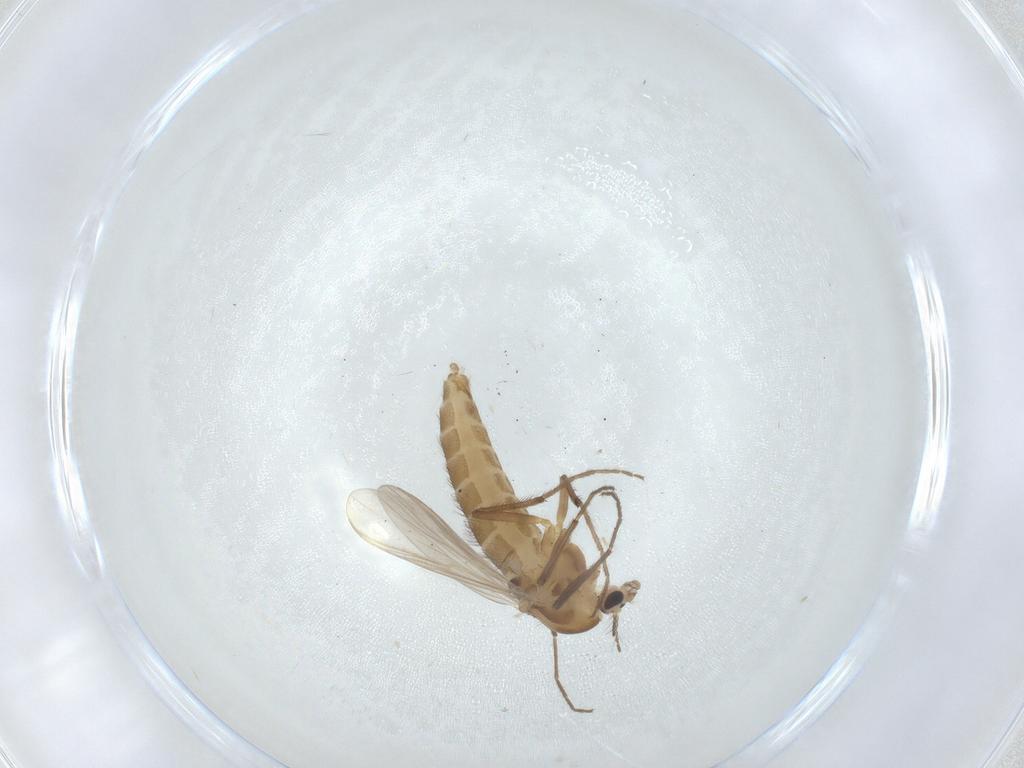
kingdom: Animalia
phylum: Arthropoda
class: Insecta
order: Diptera
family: Chironomidae
